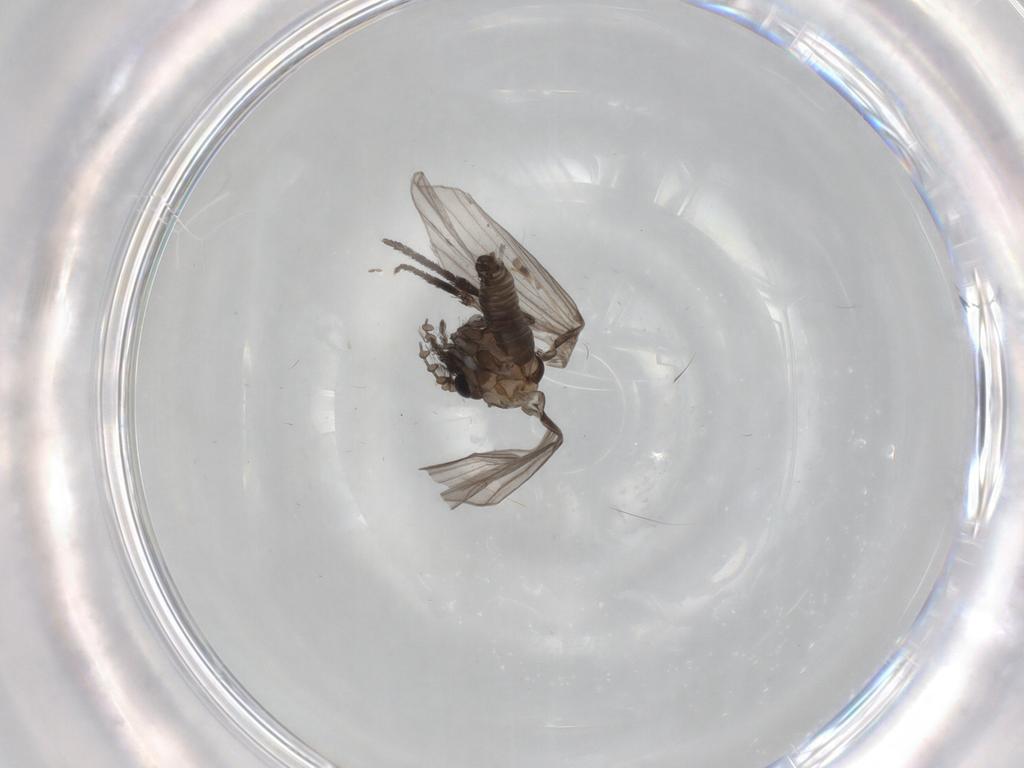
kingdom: Animalia
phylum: Arthropoda
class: Insecta
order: Diptera
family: Psychodidae
